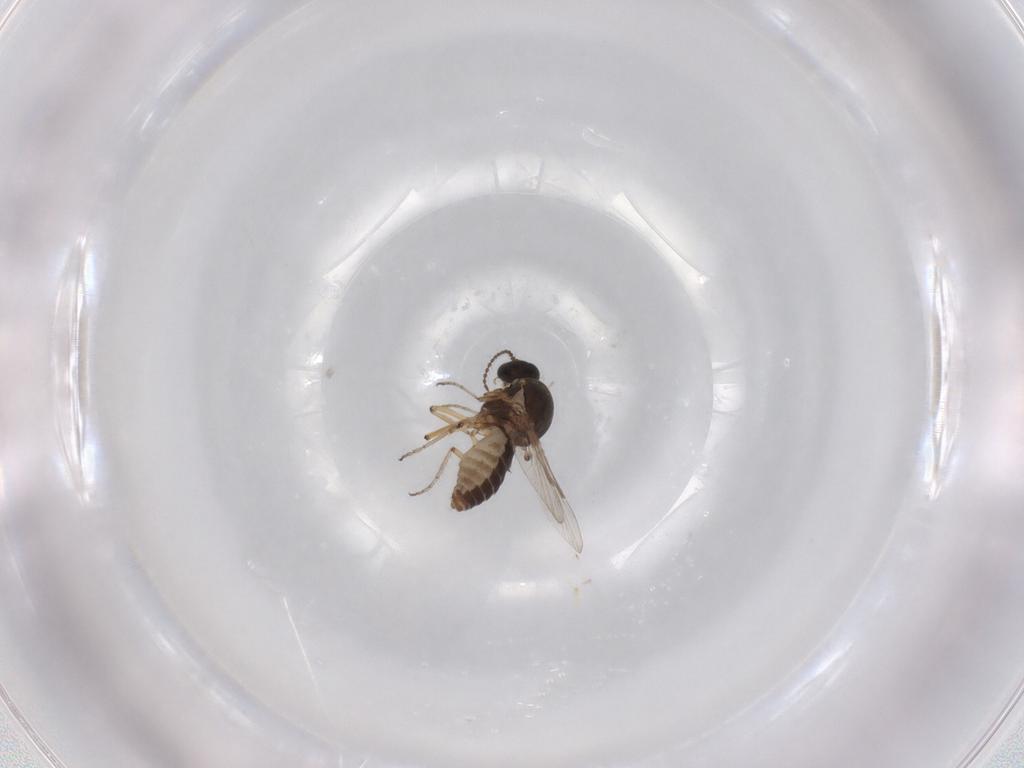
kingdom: Animalia
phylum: Arthropoda
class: Insecta
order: Diptera
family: Ceratopogonidae
